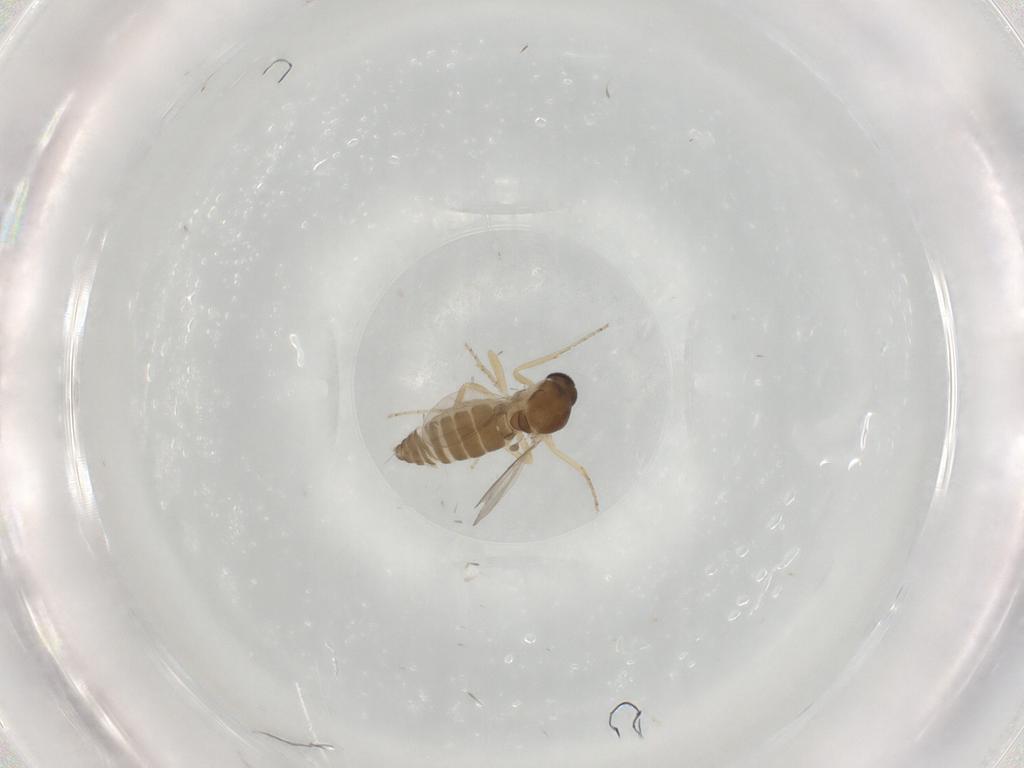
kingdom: Animalia
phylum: Arthropoda
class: Insecta
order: Diptera
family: Ceratopogonidae
